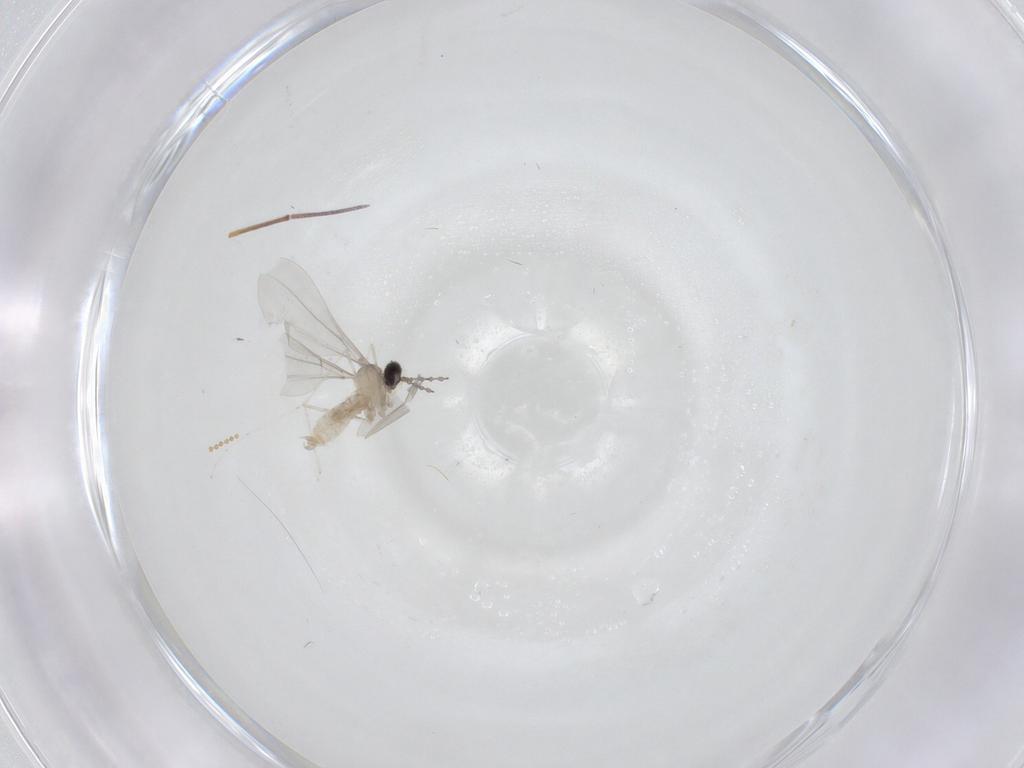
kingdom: Animalia
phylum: Arthropoda
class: Insecta
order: Diptera
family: Cecidomyiidae
